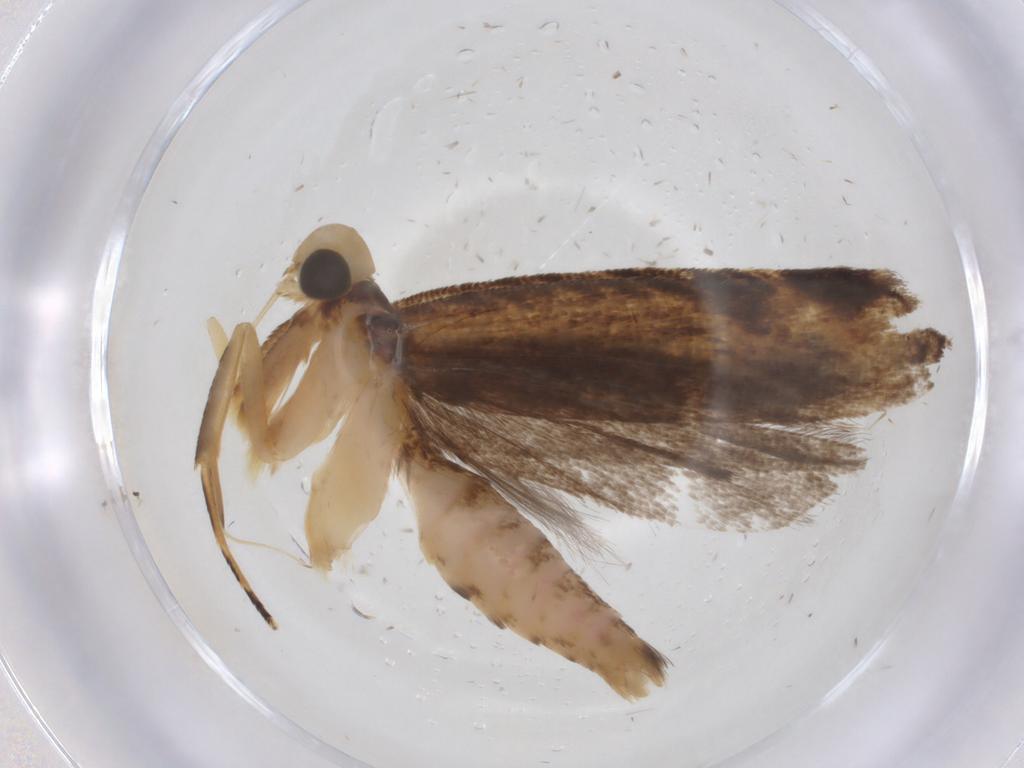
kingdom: Animalia
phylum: Arthropoda
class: Insecta
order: Lepidoptera
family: Gelechiidae
